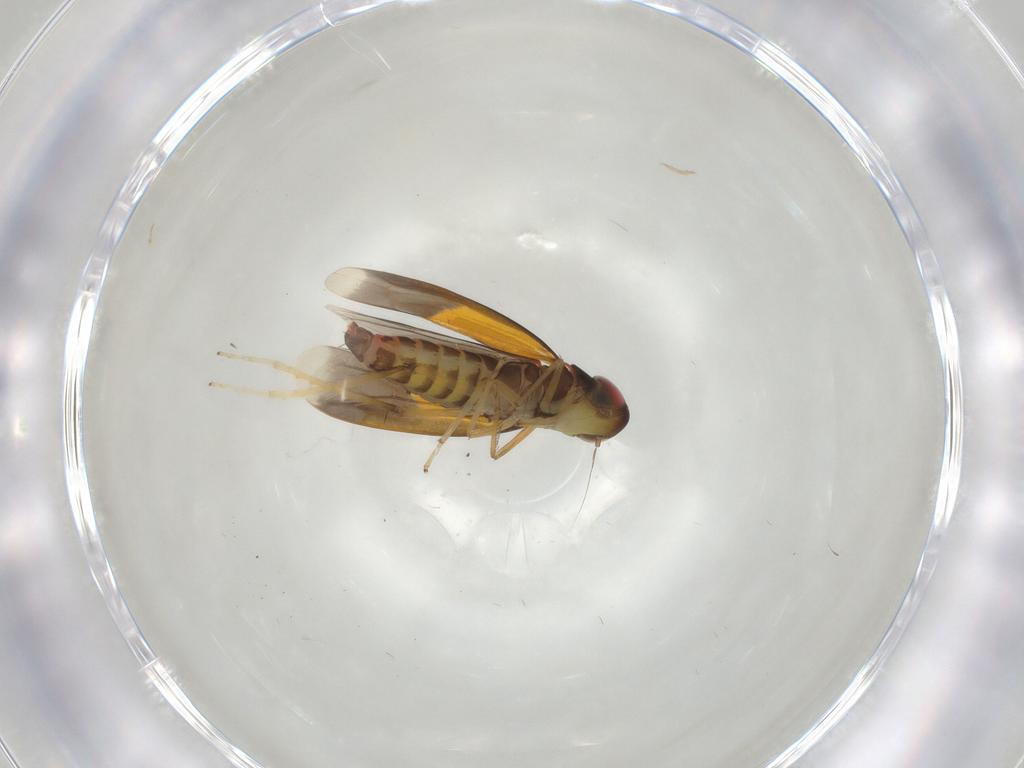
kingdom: Animalia
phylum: Arthropoda
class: Insecta
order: Hemiptera
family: Cicadellidae
